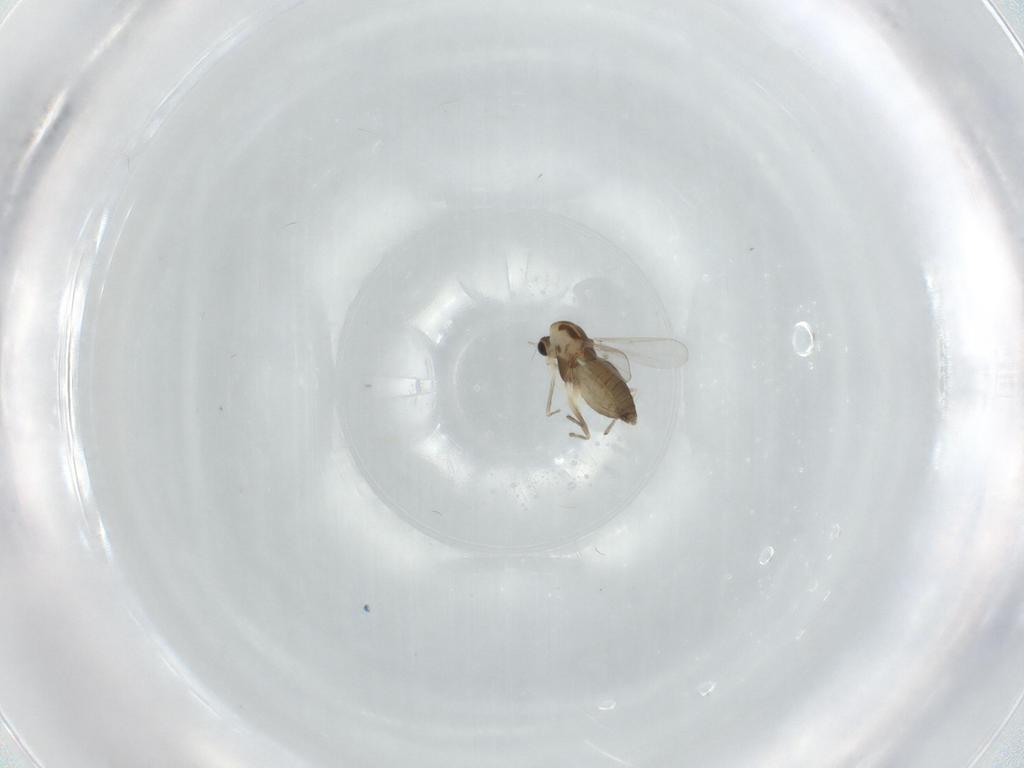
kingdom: Animalia
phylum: Arthropoda
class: Insecta
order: Diptera
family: Chironomidae
